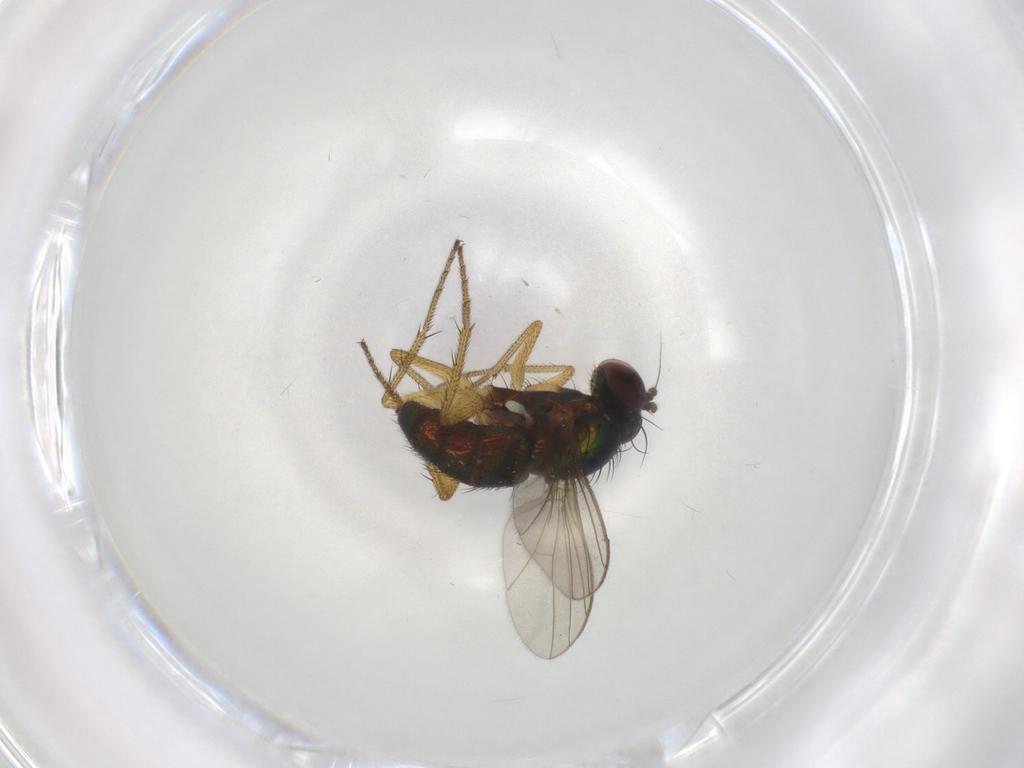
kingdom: Animalia
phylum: Arthropoda
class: Insecta
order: Diptera
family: Dolichopodidae
